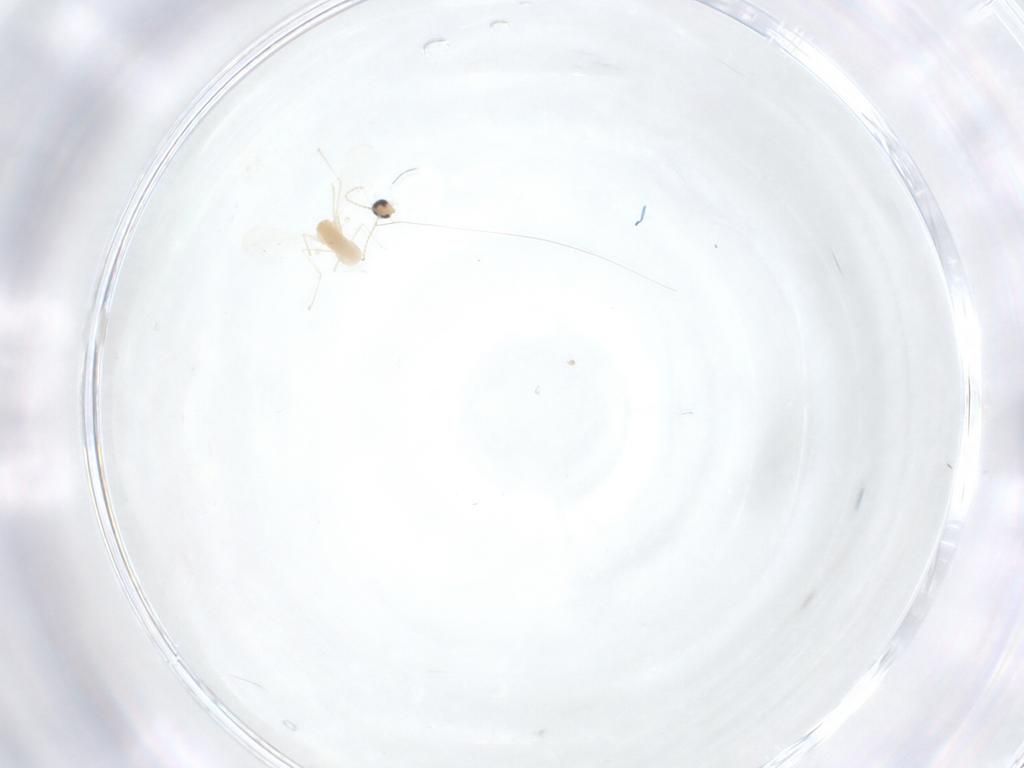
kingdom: Animalia
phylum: Arthropoda
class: Insecta
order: Diptera
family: Cecidomyiidae
